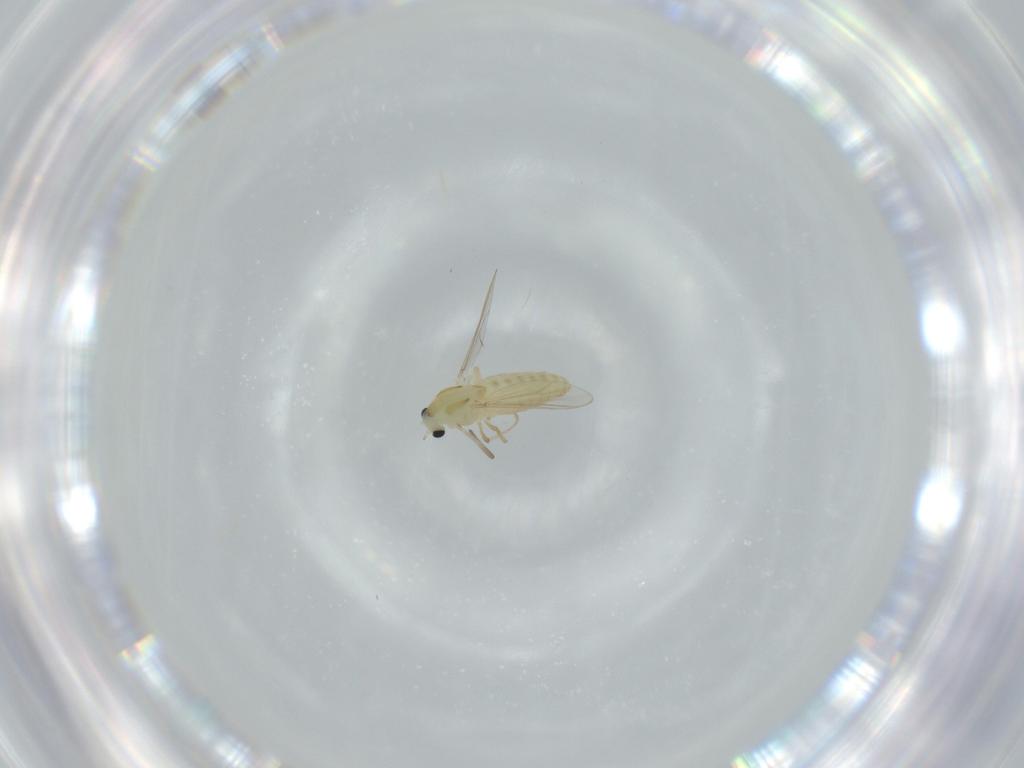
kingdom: Animalia
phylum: Arthropoda
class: Insecta
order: Diptera
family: Chironomidae
